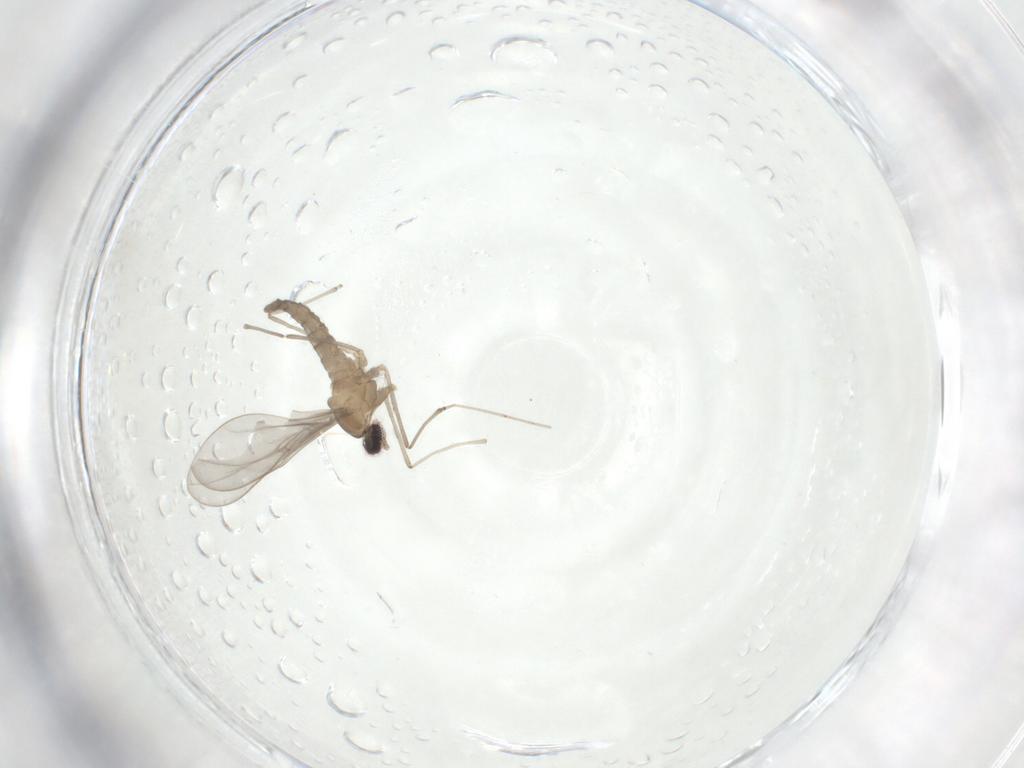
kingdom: Animalia
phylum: Arthropoda
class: Insecta
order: Diptera
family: Cecidomyiidae
